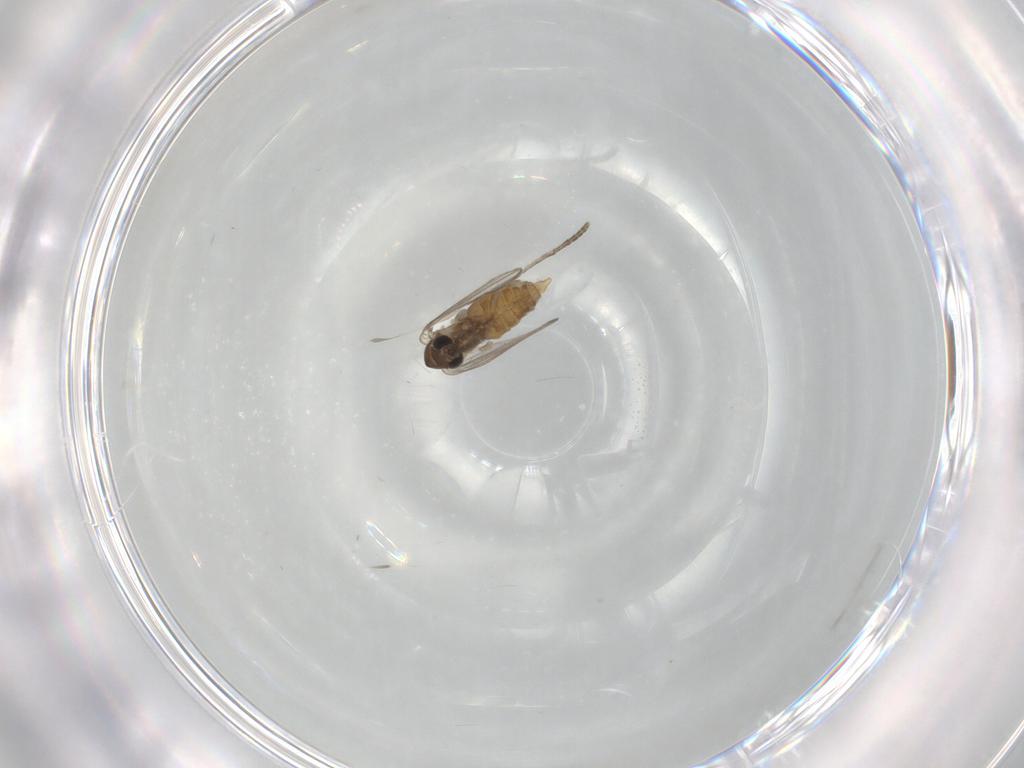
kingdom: Animalia
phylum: Arthropoda
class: Insecta
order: Diptera
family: Psychodidae
